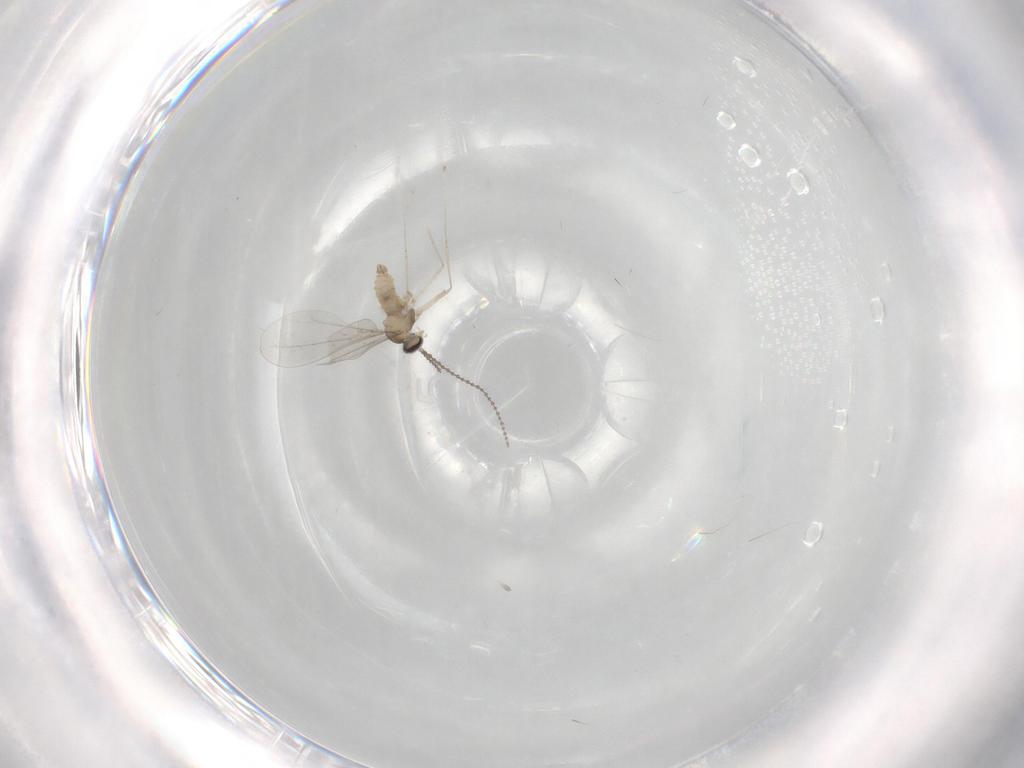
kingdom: Animalia
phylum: Arthropoda
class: Insecta
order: Diptera
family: Cecidomyiidae
